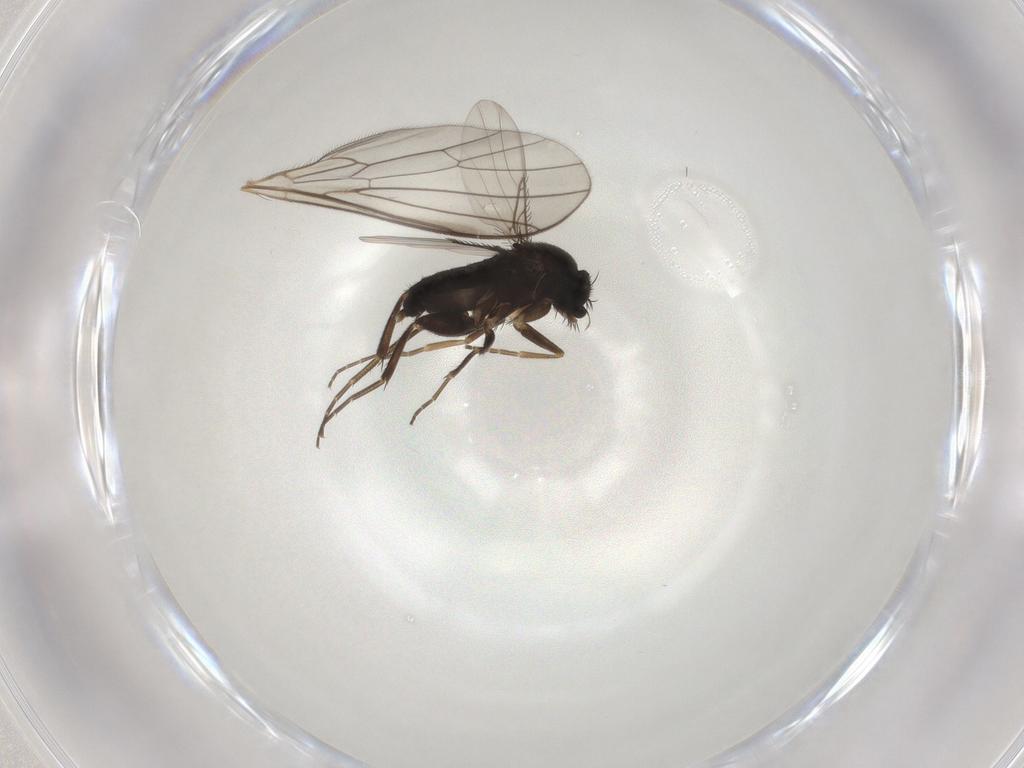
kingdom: Animalia
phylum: Arthropoda
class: Insecta
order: Diptera
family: Phoridae
